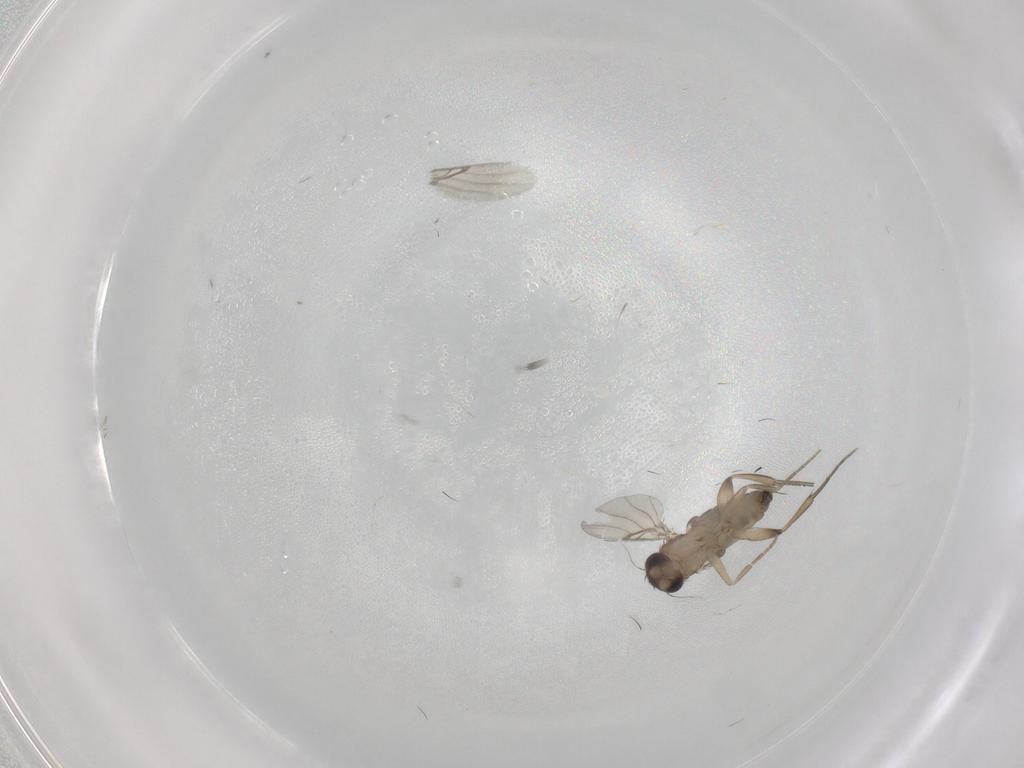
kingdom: Animalia
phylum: Arthropoda
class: Insecta
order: Diptera
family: Phoridae
